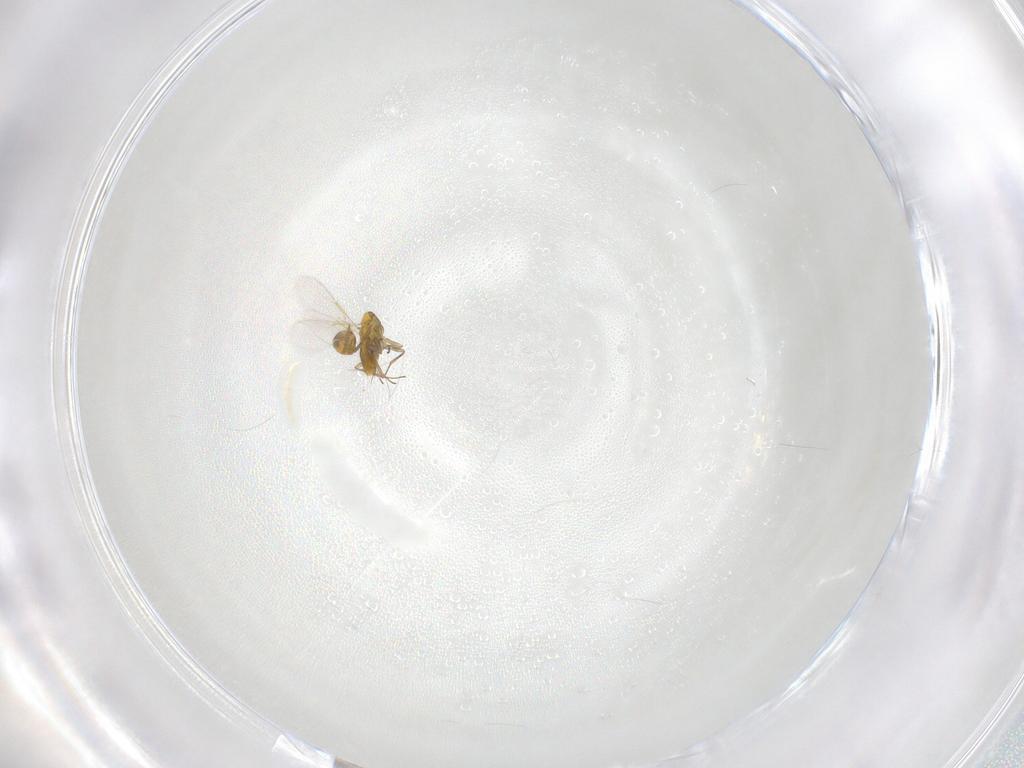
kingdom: Animalia
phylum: Arthropoda
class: Insecta
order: Hymenoptera
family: Aphelinidae
